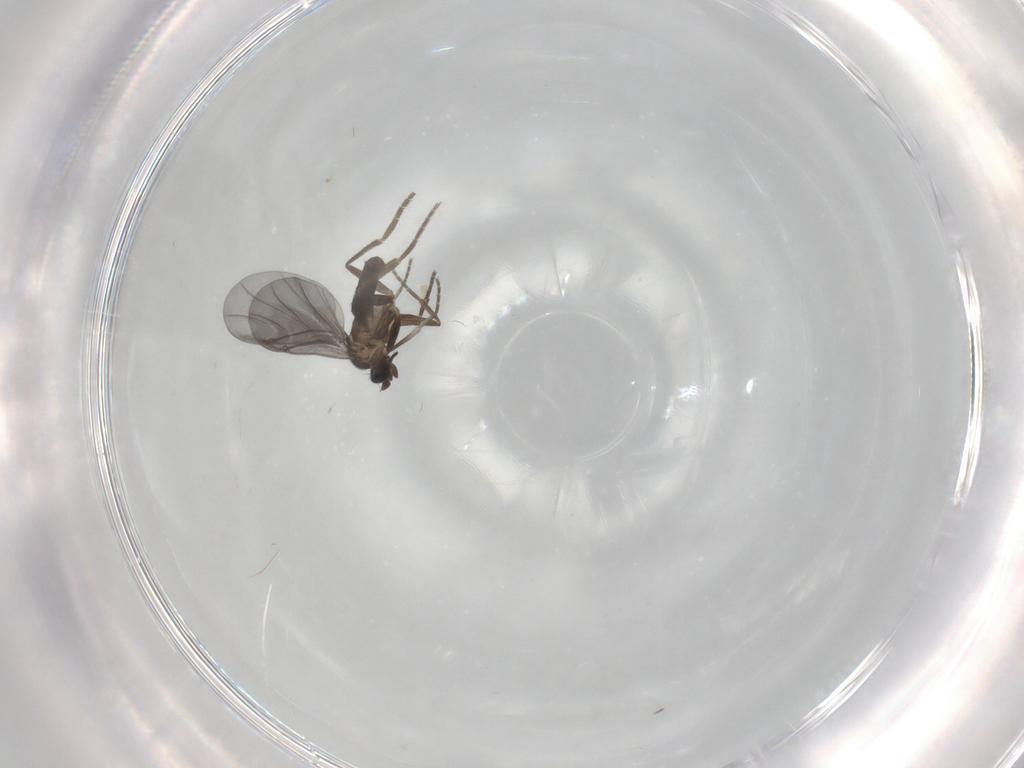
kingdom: Animalia
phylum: Arthropoda
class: Insecta
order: Diptera
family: Phoridae
